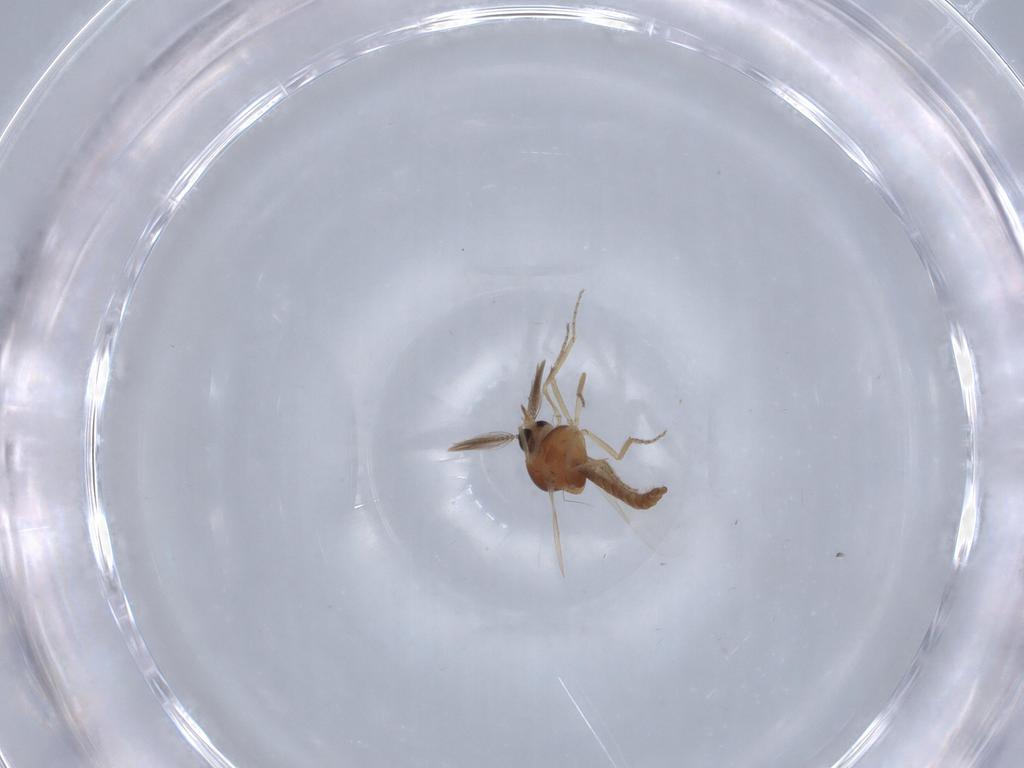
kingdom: Animalia
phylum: Arthropoda
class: Insecta
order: Diptera
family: Ceratopogonidae
